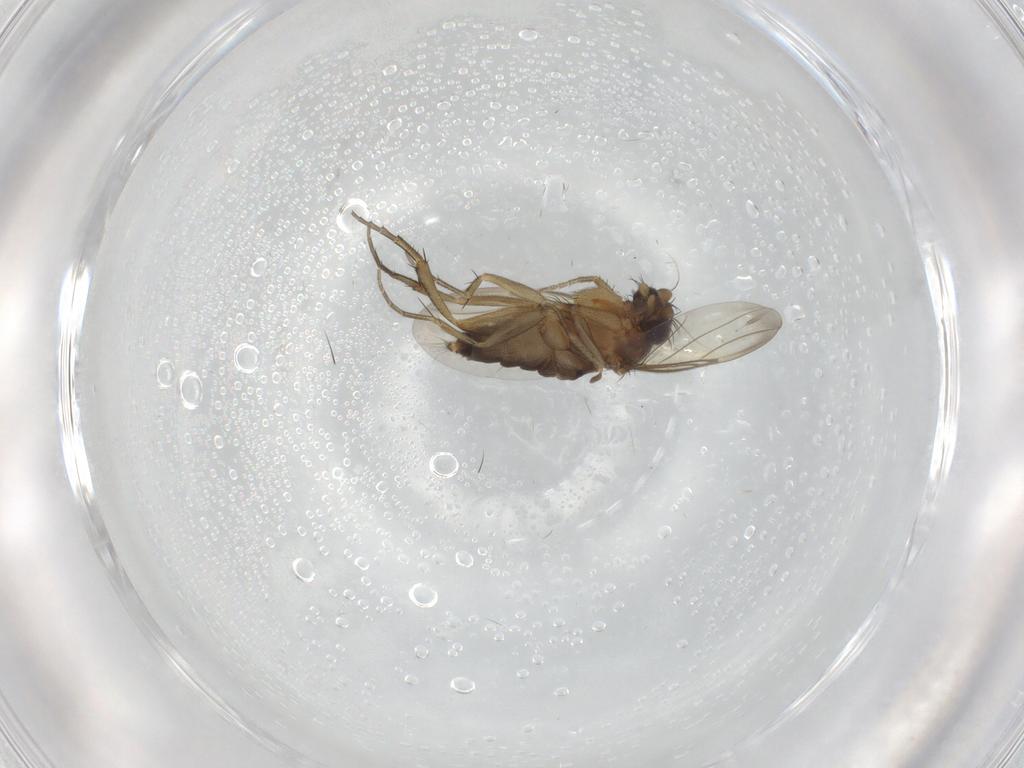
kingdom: Animalia
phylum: Arthropoda
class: Insecta
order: Diptera
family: Phoridae
